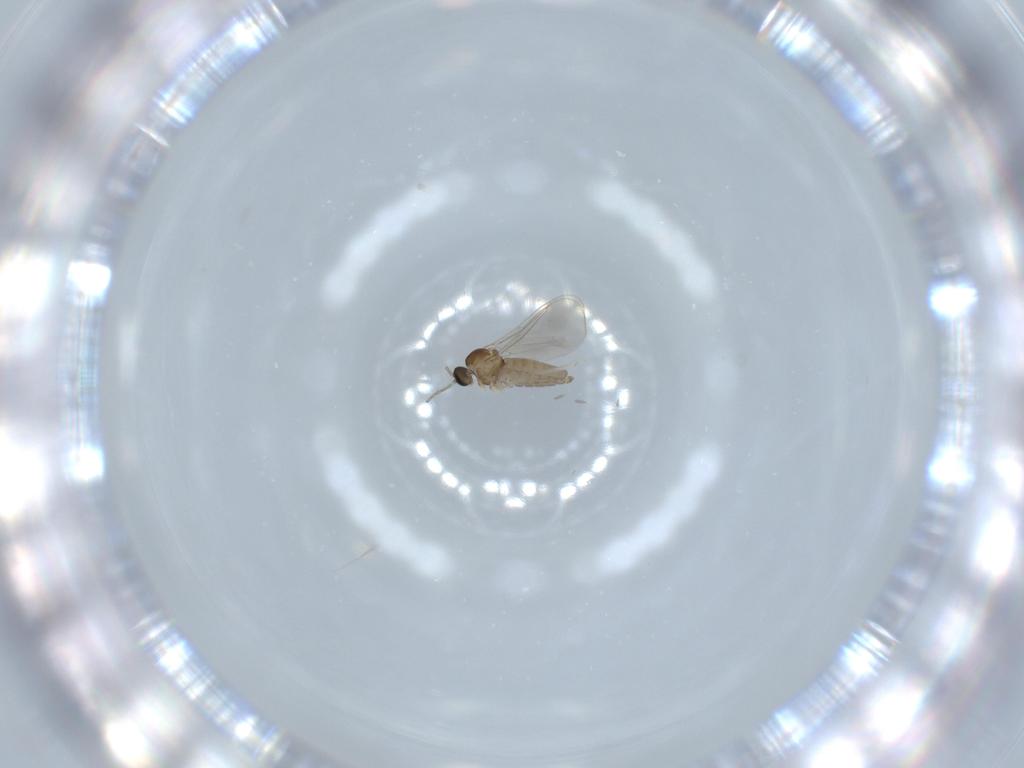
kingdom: Animalia
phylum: Arthropoda
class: Insecta
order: Diptera
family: Cecidomyiidae
